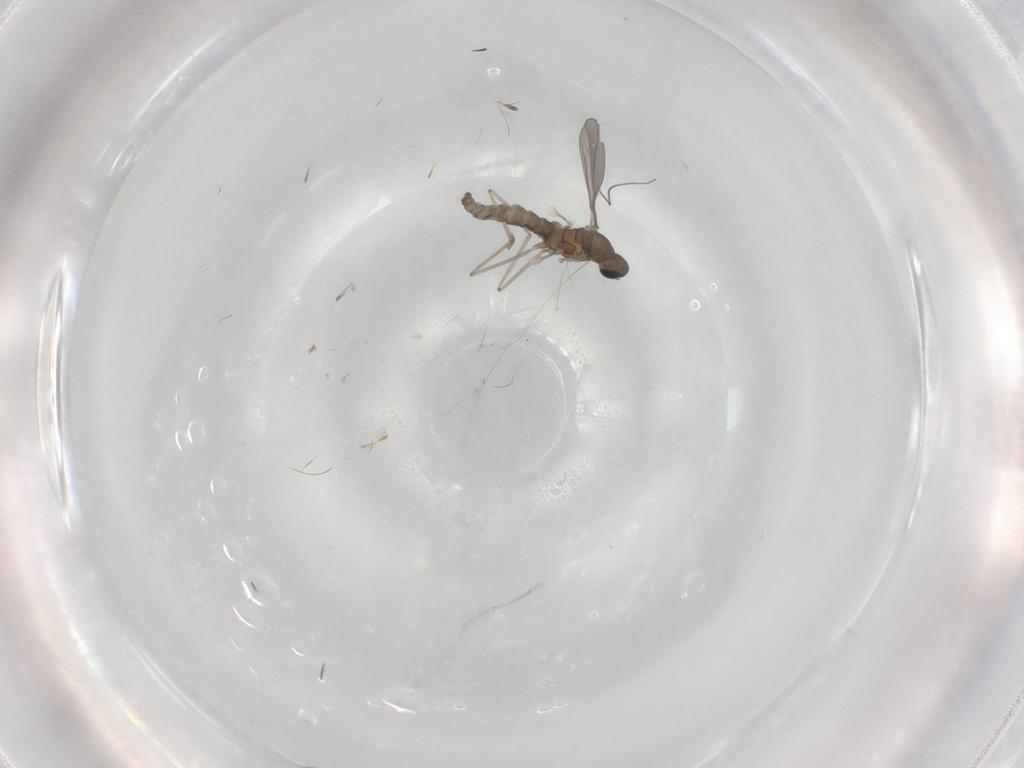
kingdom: Animalia
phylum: Arthropoda
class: Insecta
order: Diptera
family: Cecidomyiidae
